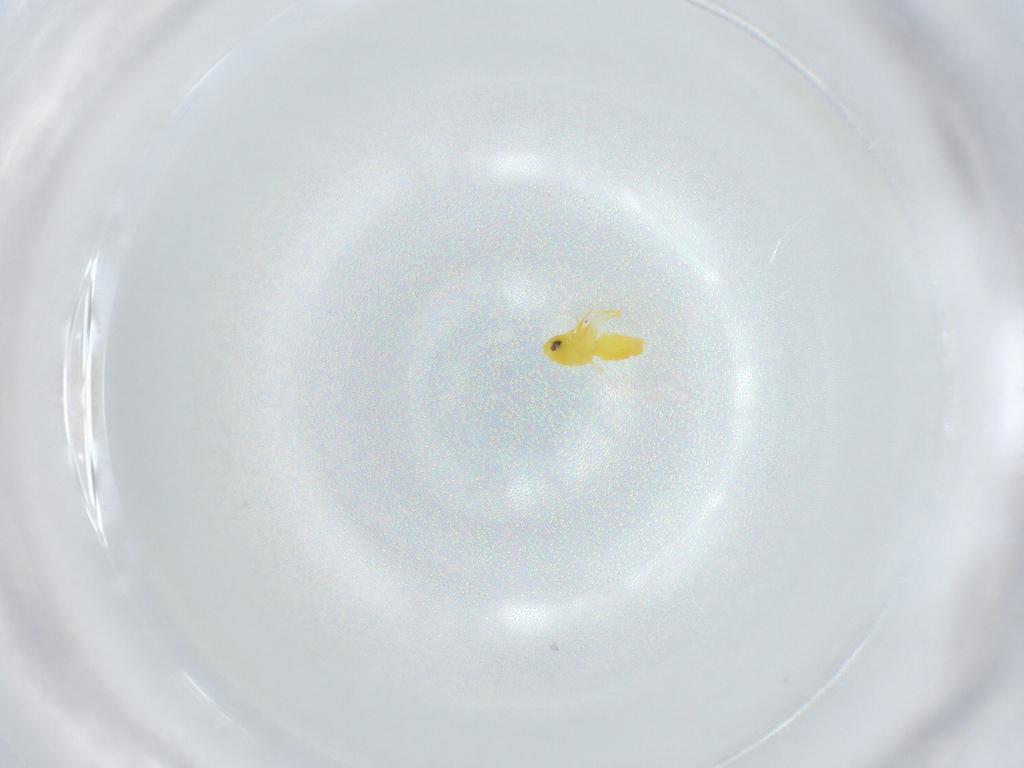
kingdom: Animalia
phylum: Arthropoda
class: Insecta
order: Hemiptera
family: Aleyrodidae
